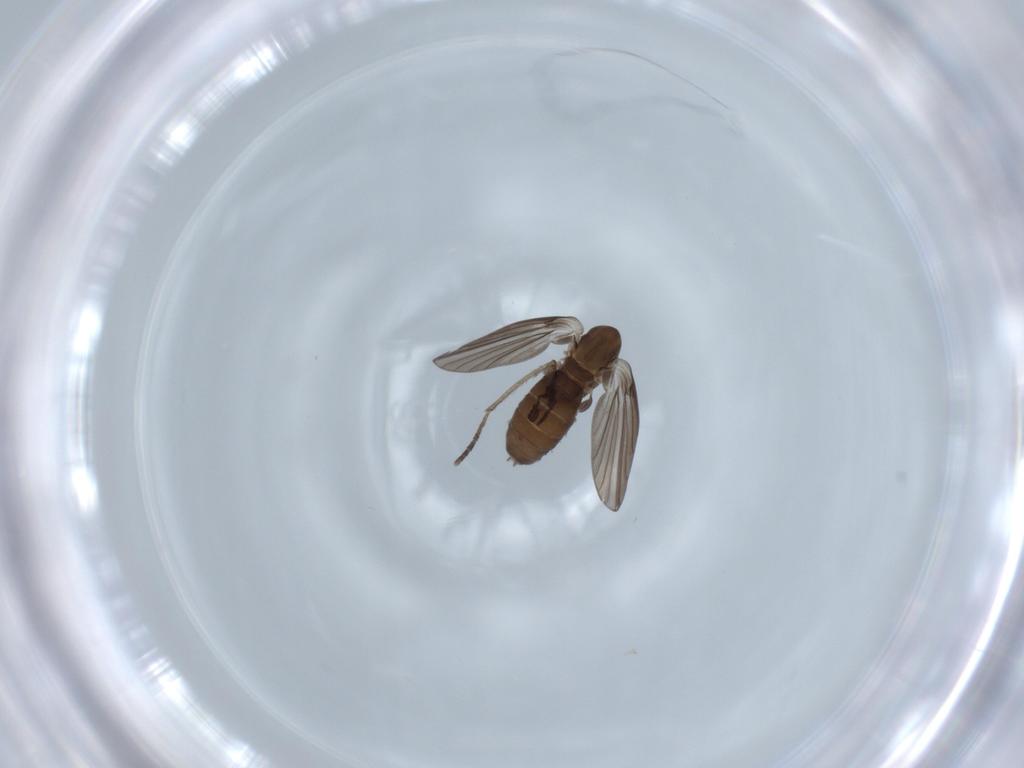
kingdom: Animalia
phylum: Arthropoda
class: Insecta
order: Diptera
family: Psychodidae
